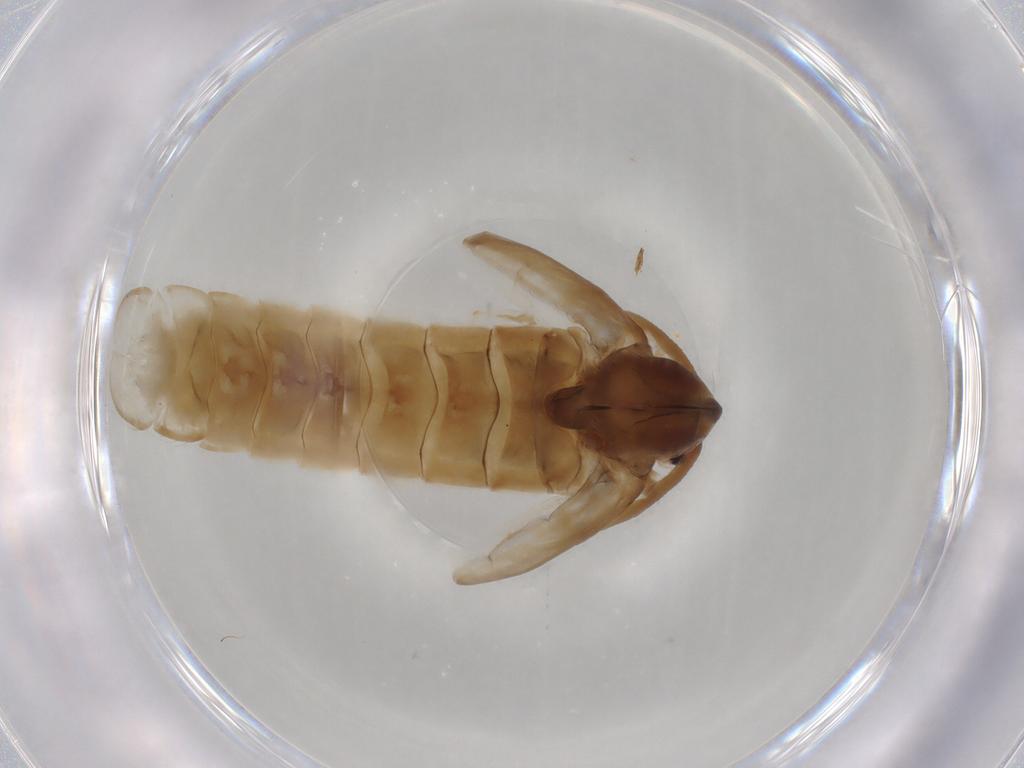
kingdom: Animalia
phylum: Arthropoda
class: Insecta
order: Diptera
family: Chironomidae
